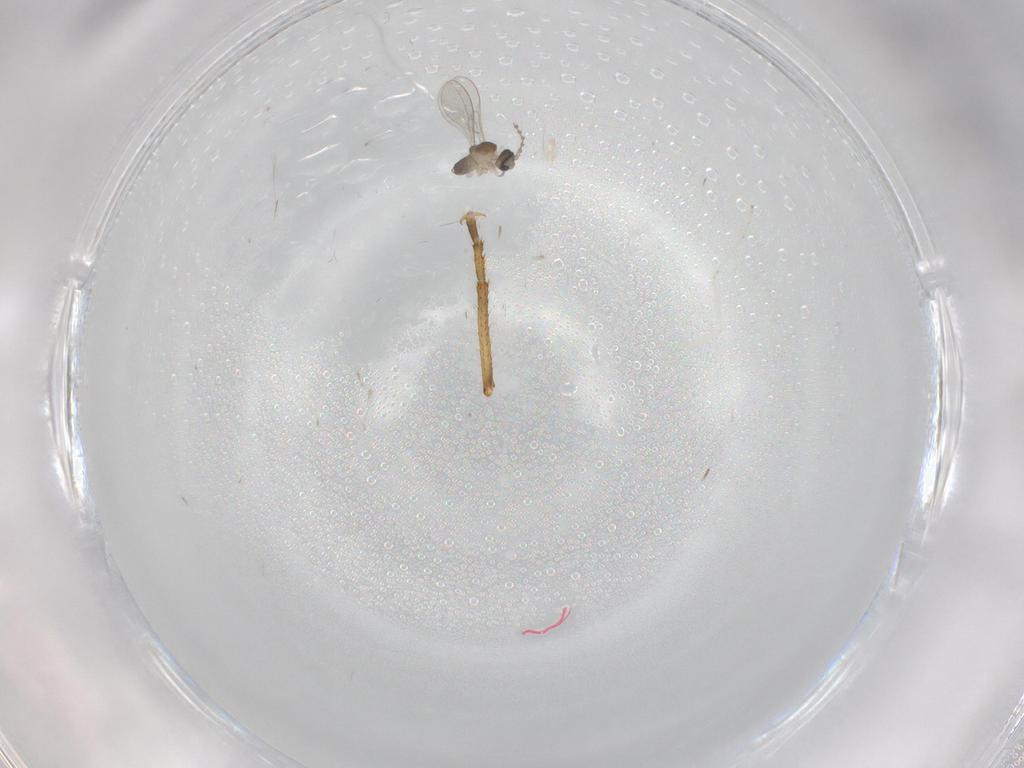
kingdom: Animalia
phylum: Arthropoda
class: Insecta
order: Diptera
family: Cecidomyiidae
